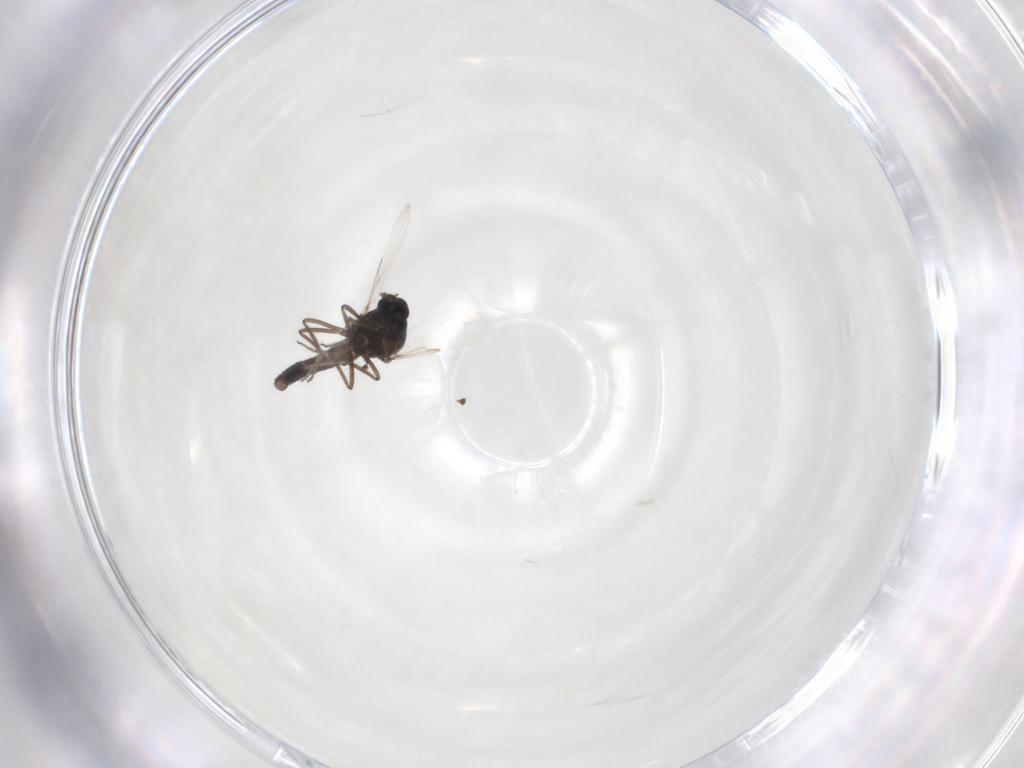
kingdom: Animalia
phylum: Arthropoda
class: Insecta
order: Diptera
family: Ceratopogonidae
